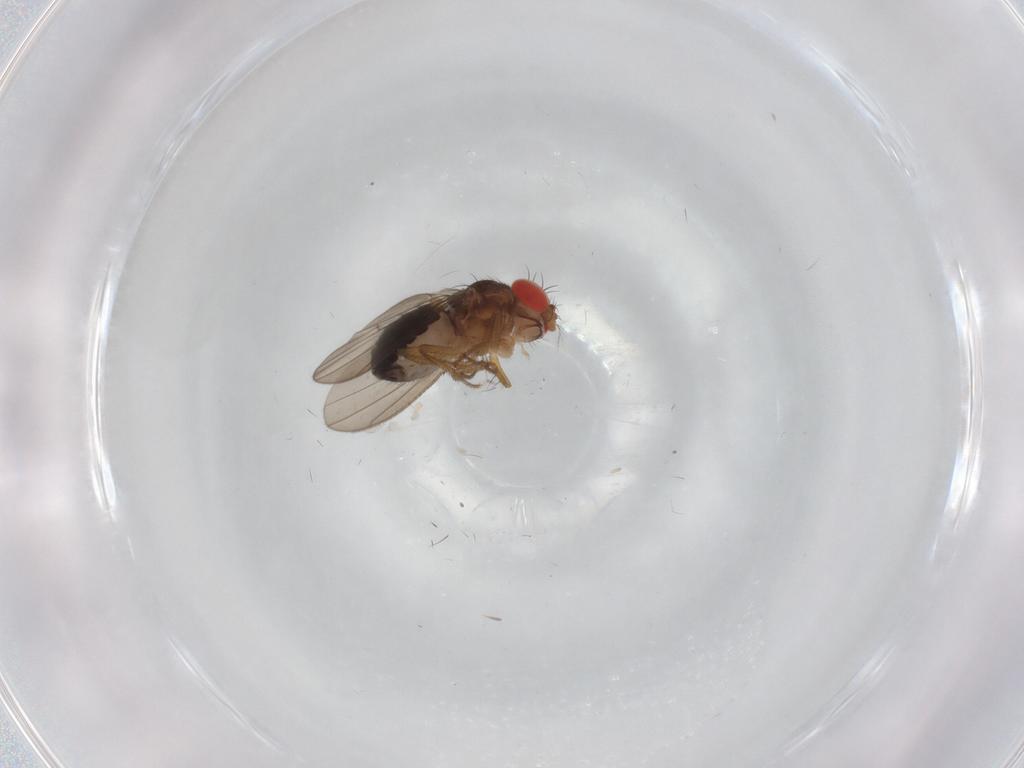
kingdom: Animalia
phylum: Arthropoda
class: Insecta
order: Diptera
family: Drosophilidae
